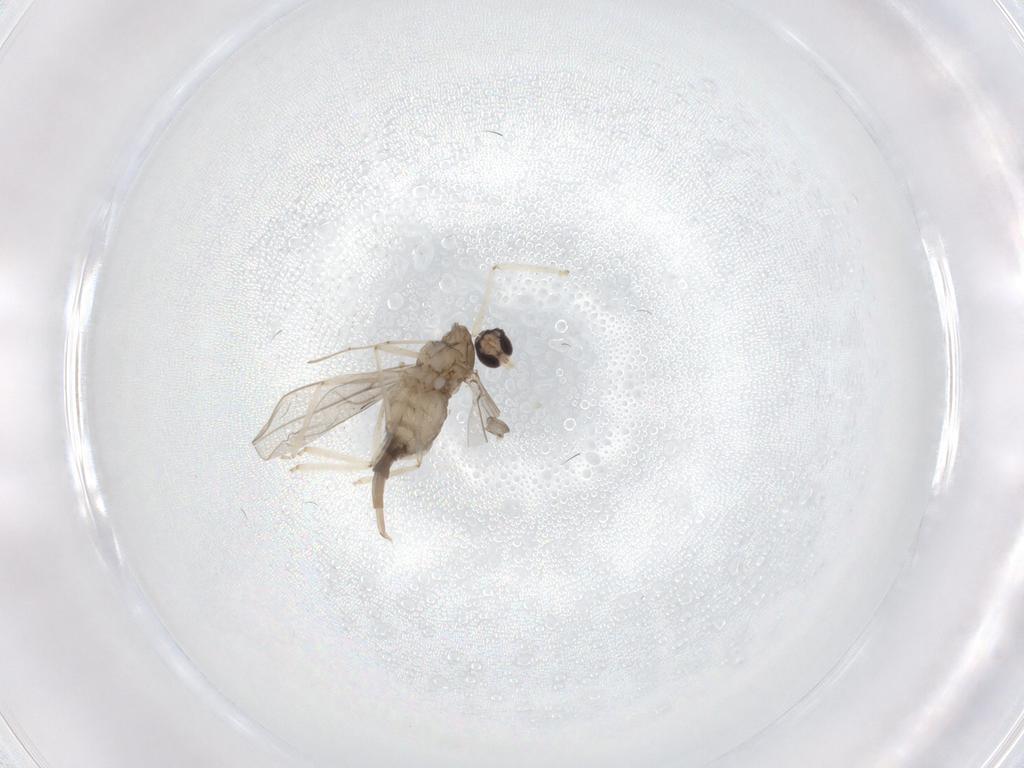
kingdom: Animalia
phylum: Arthropoda
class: Insecta
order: Diptera
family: Cecidomyiidae
